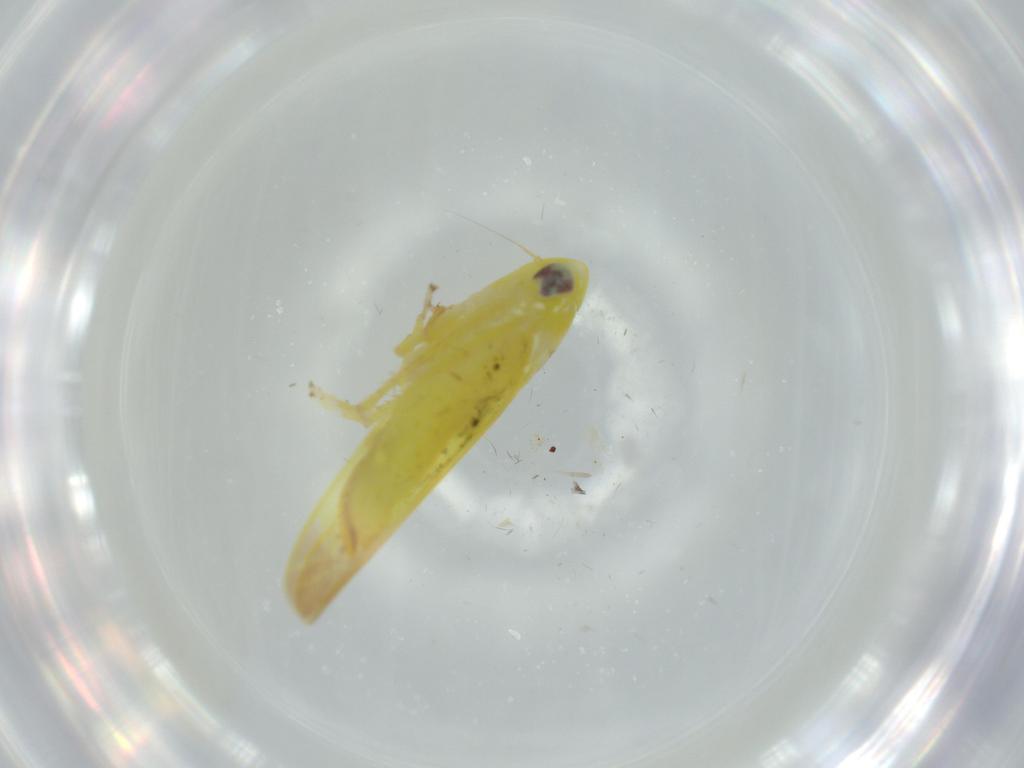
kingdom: Animalia
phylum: Arthropoda
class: Insecta
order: Hemiptera
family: Cicadellidae
